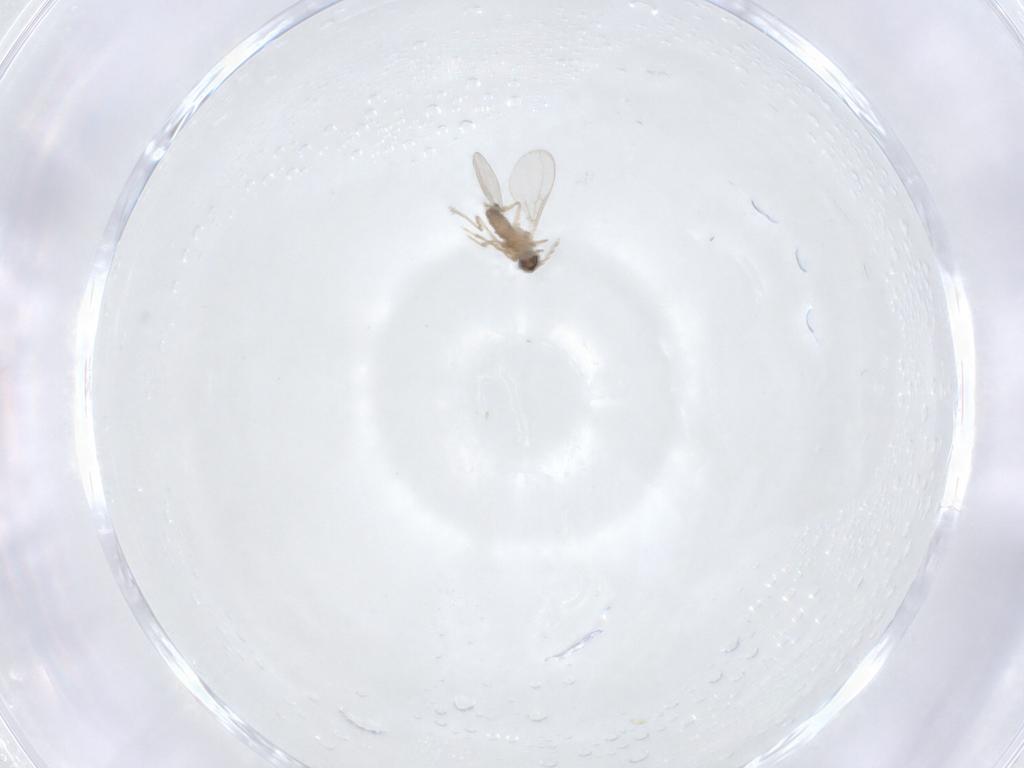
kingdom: Animalia
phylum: Arthropoda
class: Insecta
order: Diptera
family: Cecidomyiidae
